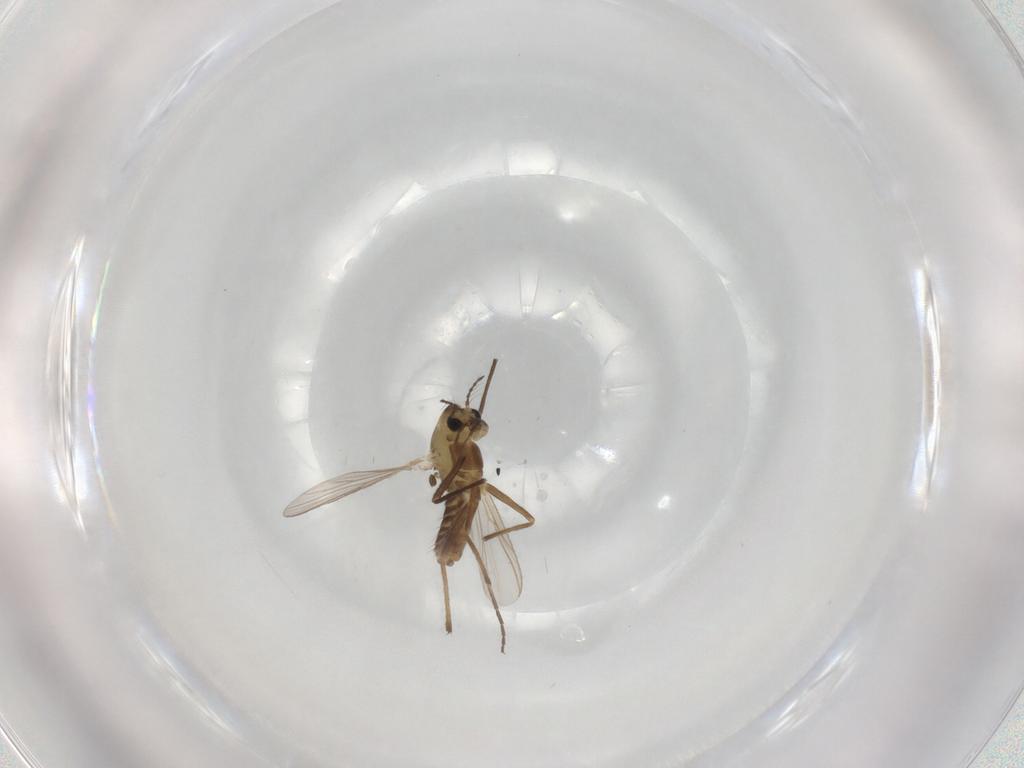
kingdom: Animalia
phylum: Arthropoda
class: Insecta
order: Diptera
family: Chironomidae
